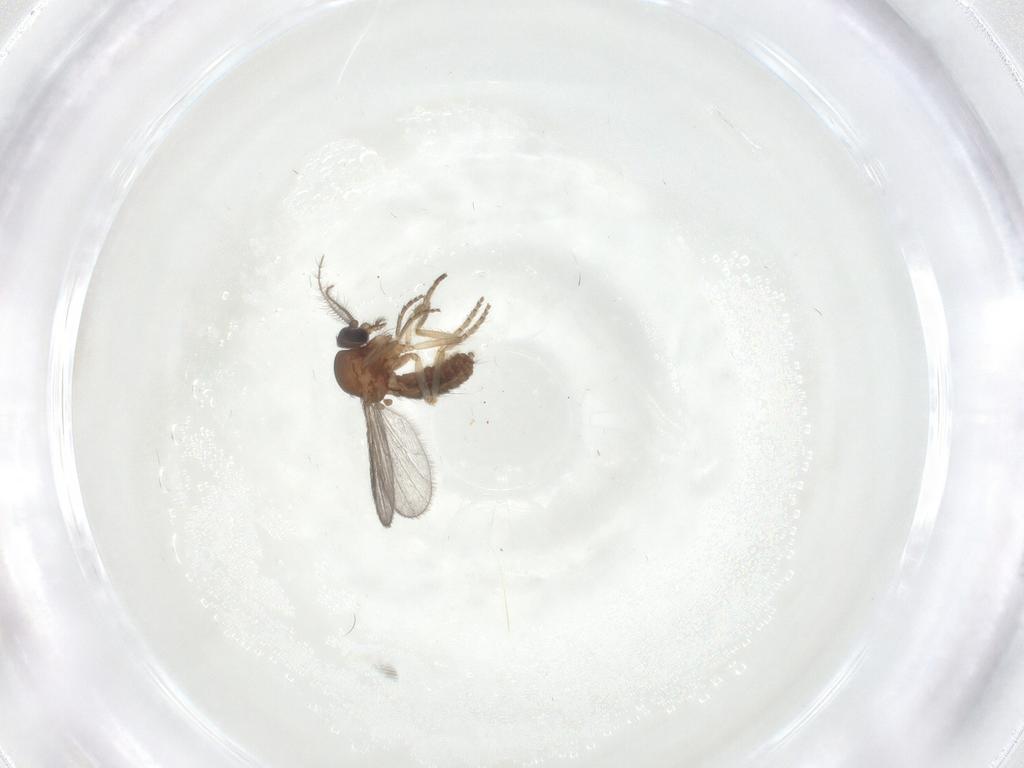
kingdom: Animalia
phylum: Arthropoda
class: Insecta
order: Diptera
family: Ceratopogonidae
